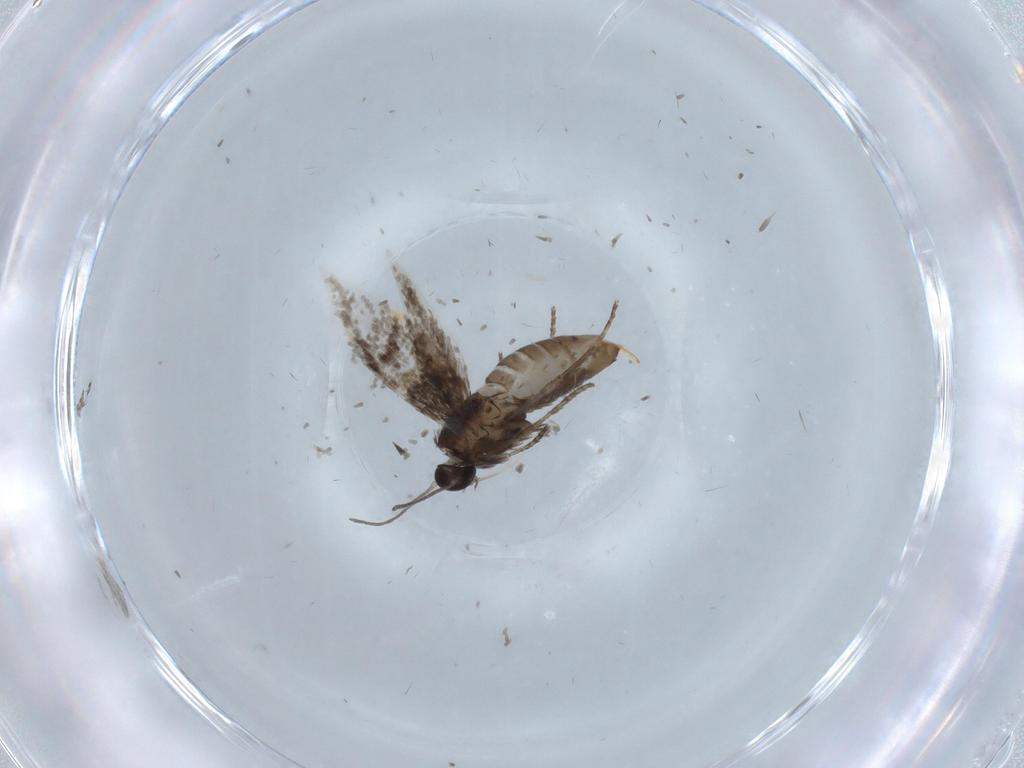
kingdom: Animalia
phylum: Arthropoda
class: Insecta
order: Lepidoptera
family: Heliozelidae
